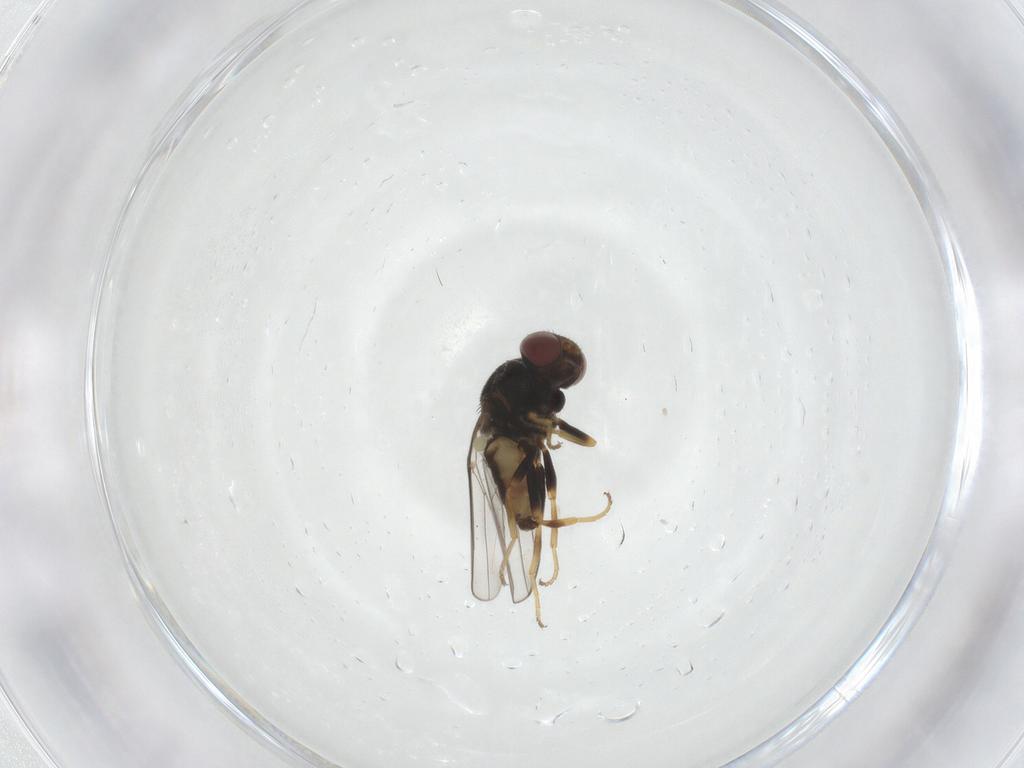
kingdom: Animalia
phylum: Arthropoda
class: Insecta
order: Diptera
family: Chloropidae
